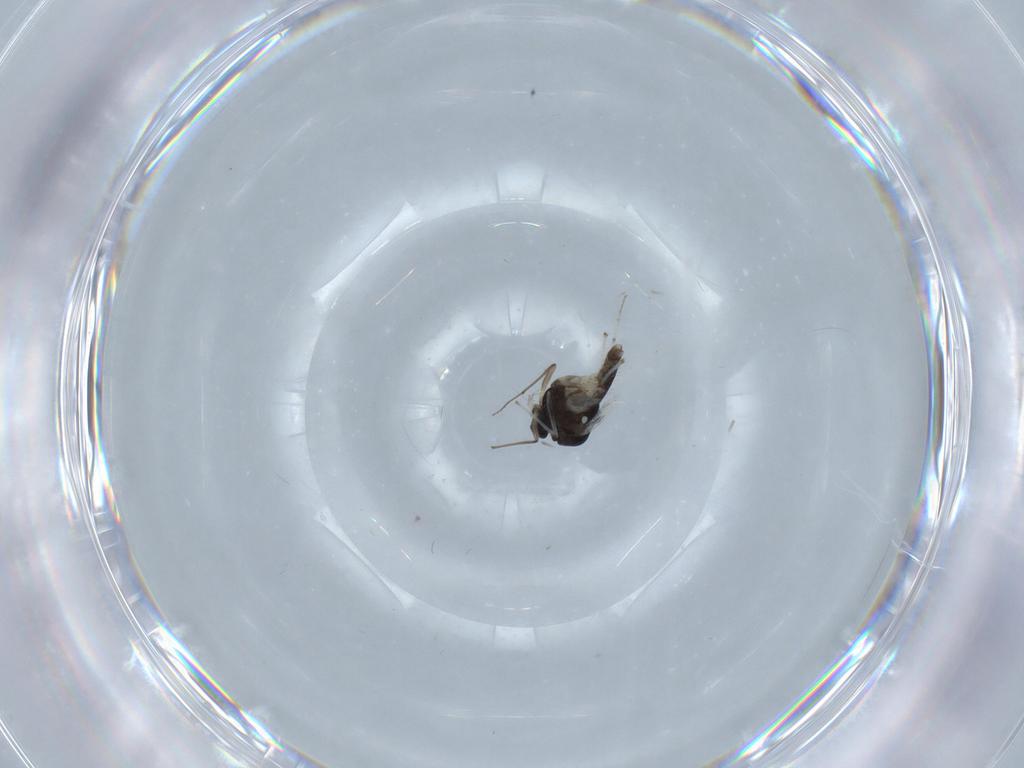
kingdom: Animalia
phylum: Arthropoda
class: Insecta
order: Diptera
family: Chironomidae
